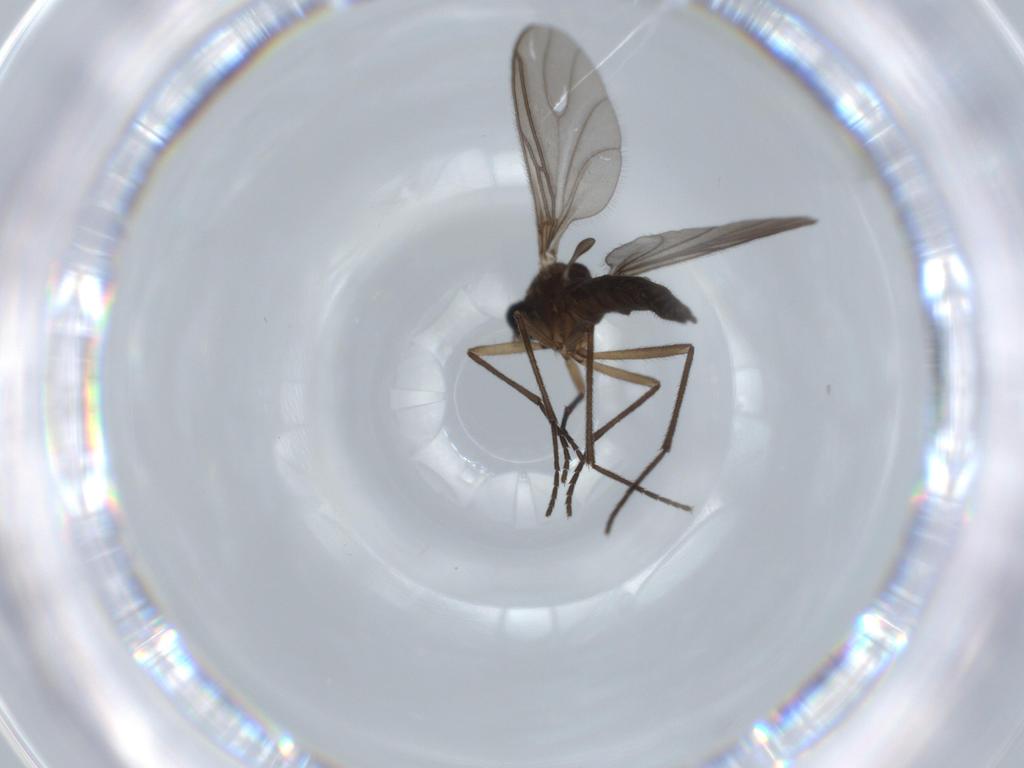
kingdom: Animalia
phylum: Arthropoda
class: Insecta
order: Diptera
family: Sciaridae
